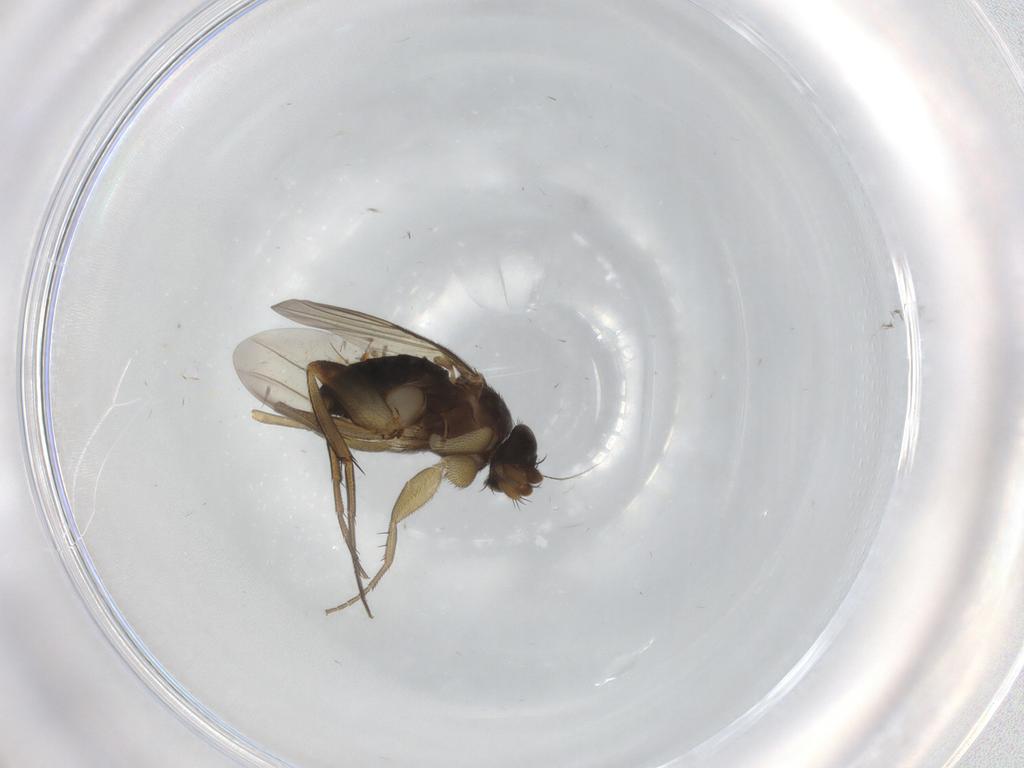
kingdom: Animalia
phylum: Arthropoda
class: Insecta
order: Diptera
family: Phoridae
